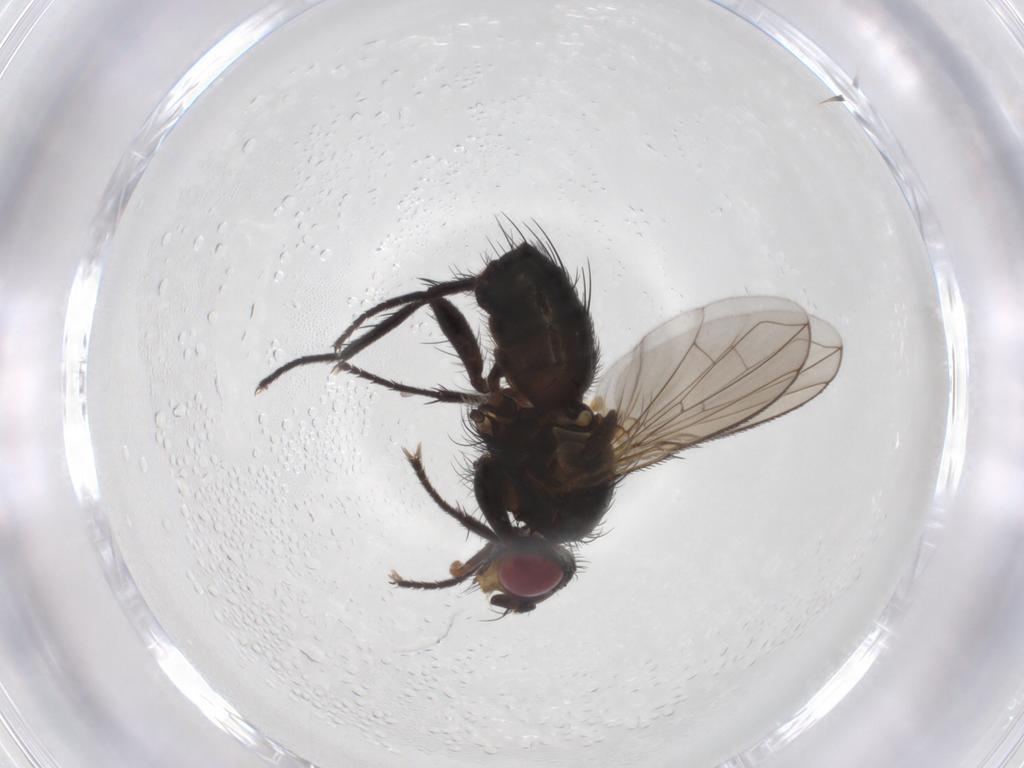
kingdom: Animalia
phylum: Arthropoda
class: Insecta
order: Diptera
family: Calliphoridae
